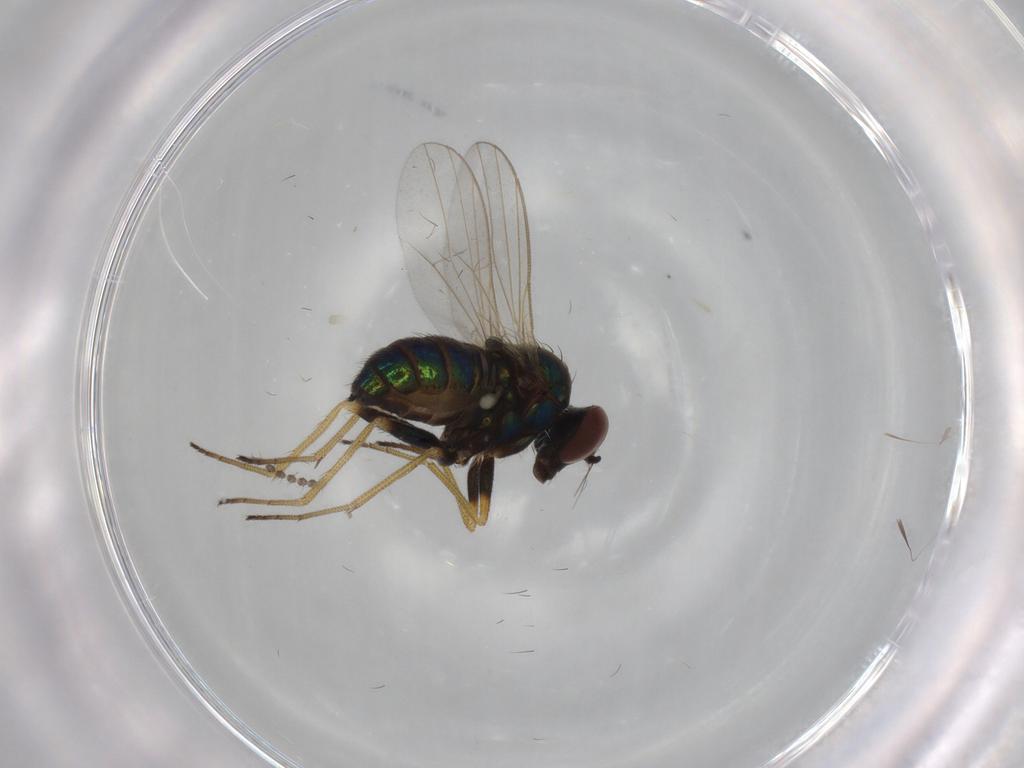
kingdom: Animalia
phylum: Arthropoda
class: Insecta
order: Diptera
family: Dolichopodidae
